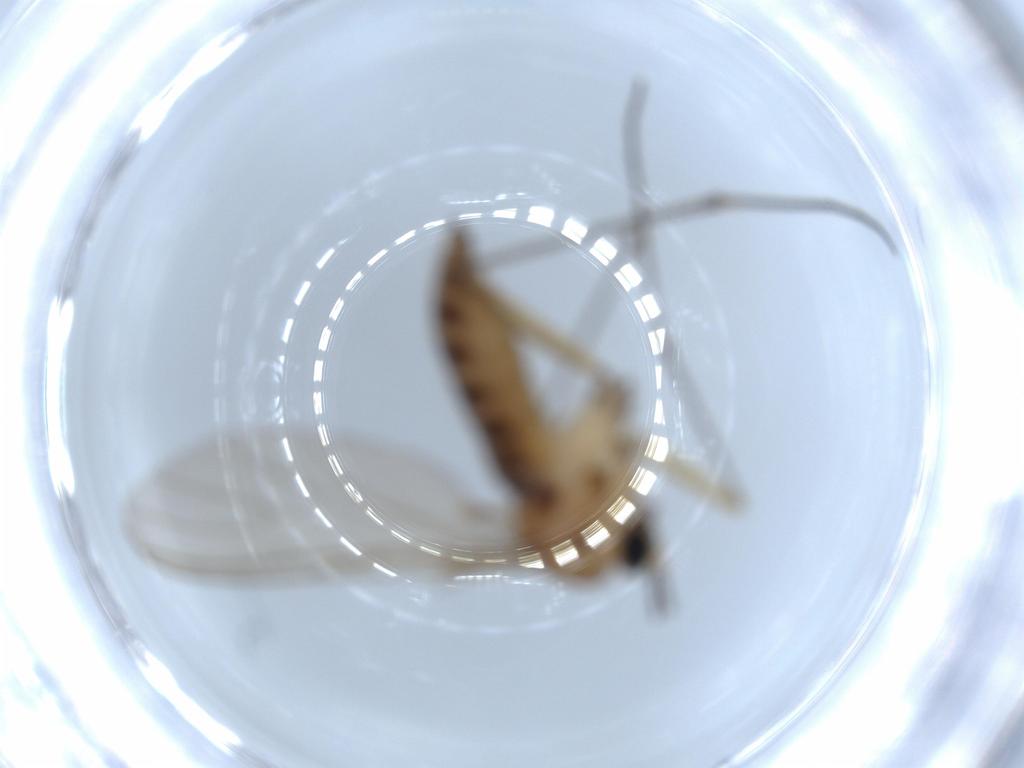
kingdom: Animalia
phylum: Arthropoda
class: Insecta
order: Diptera
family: Sciaridae
